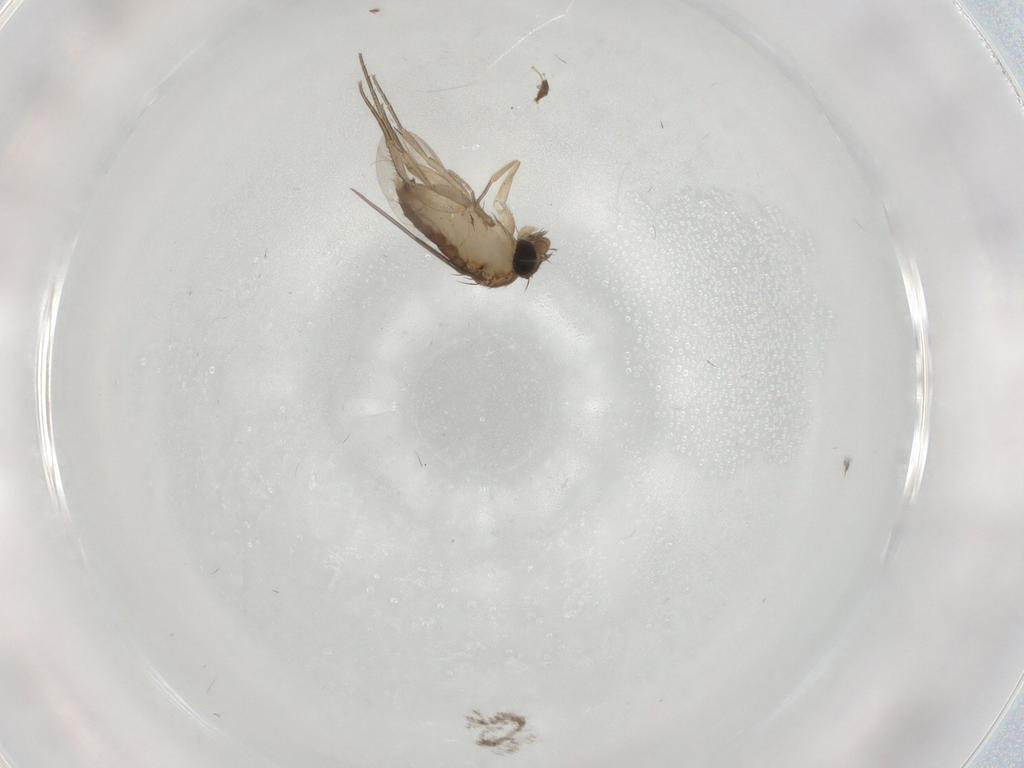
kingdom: Animalia
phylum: Arthropoda
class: Insecta
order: Diptera
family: Phoridae
